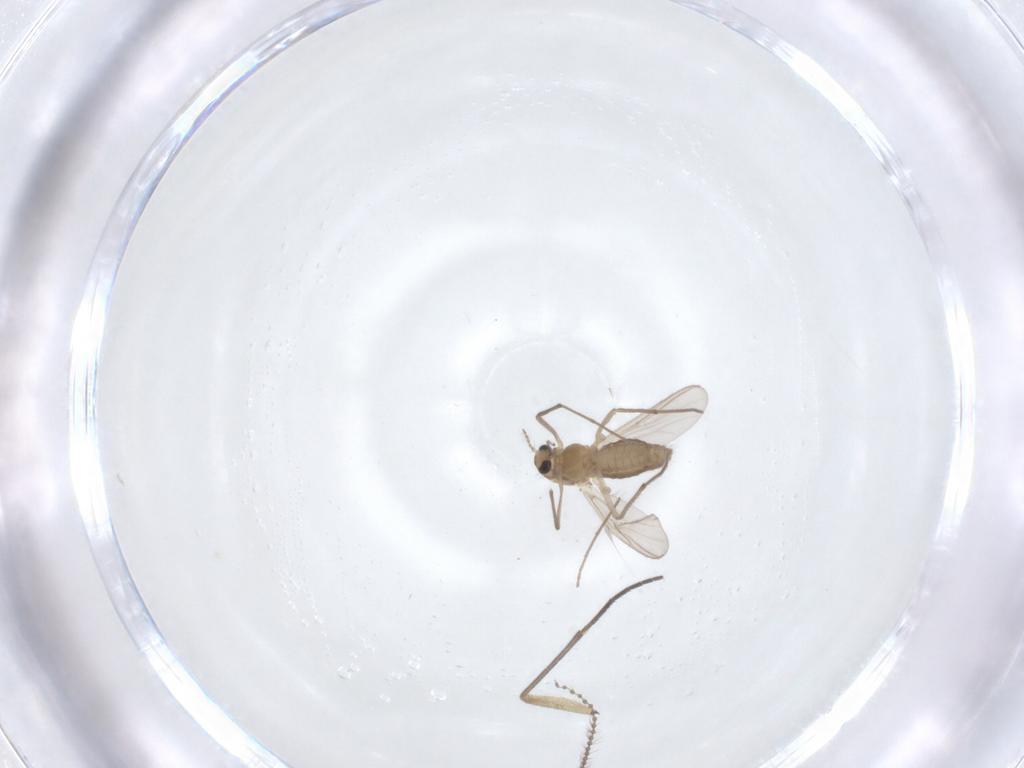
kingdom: Animalia
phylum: Arthropoda
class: Insecta
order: Diptera
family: Chironomidae
